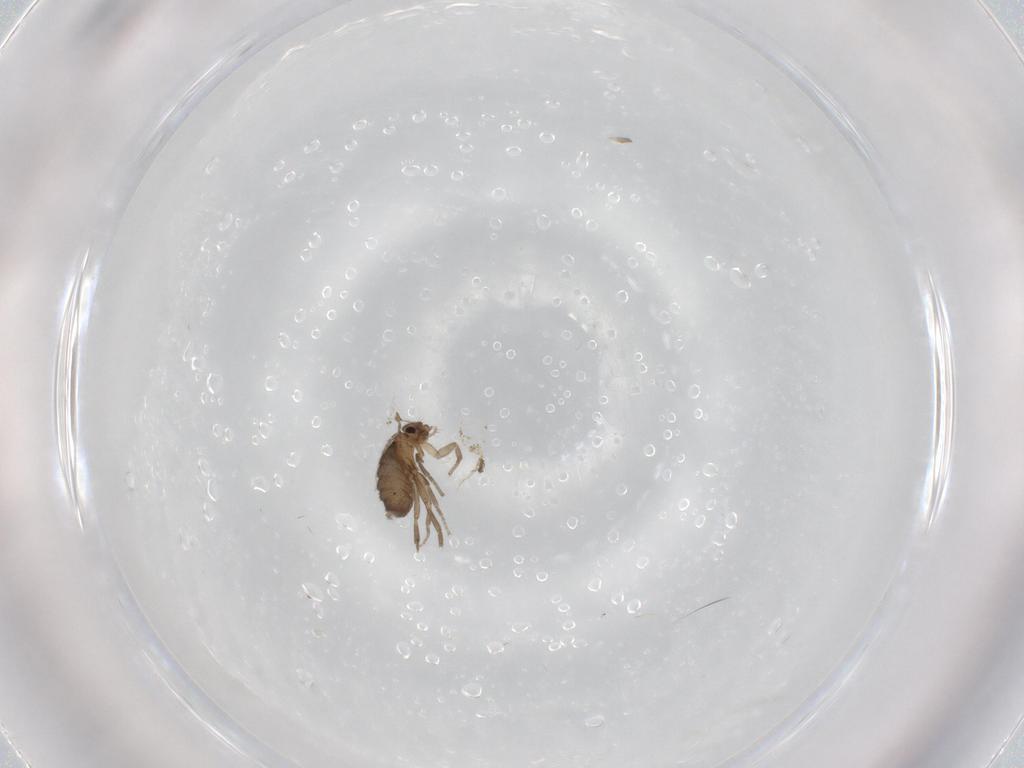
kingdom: Animalia
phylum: Arthropoda
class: Insecta
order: Diptera
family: Phoridae
